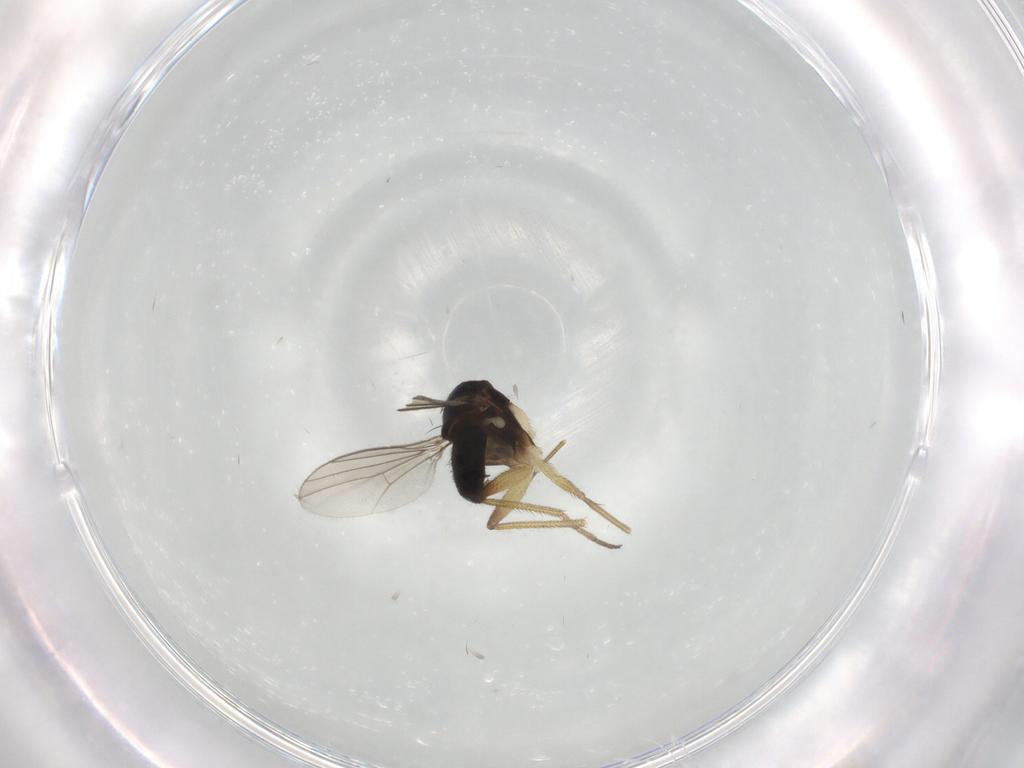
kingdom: Animalia
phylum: Arthropoda
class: Insecta
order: Diptera
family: Dolichopodidae
